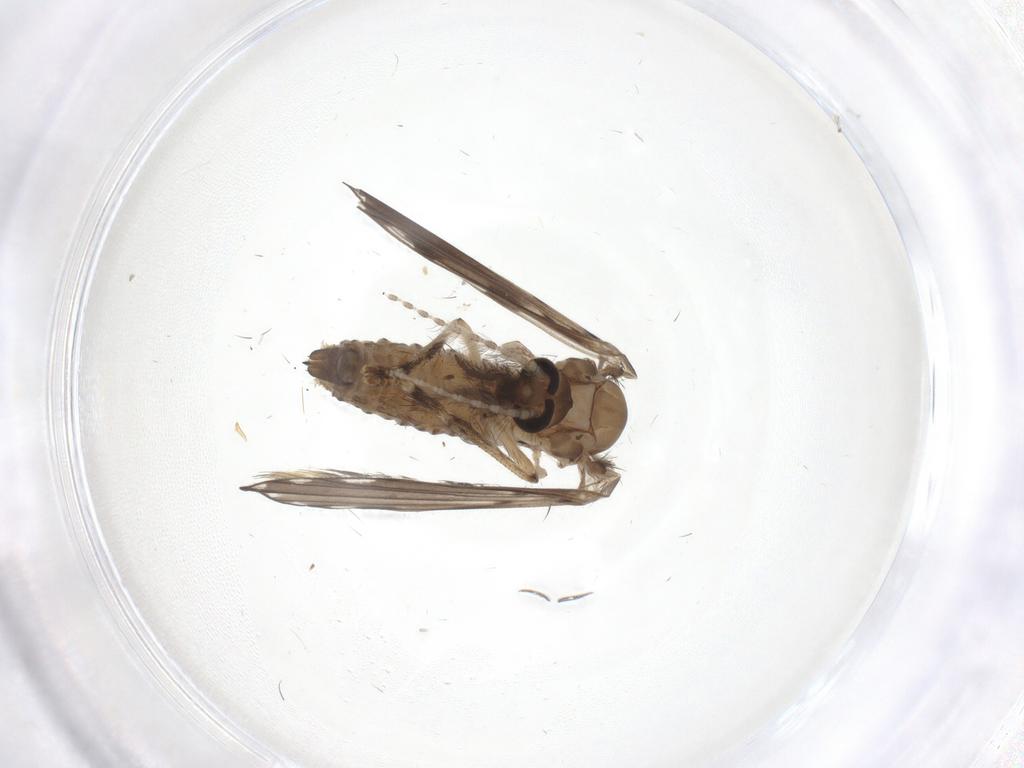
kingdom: Animalia
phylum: Arthropoda
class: Insecta
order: Diptera
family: Psychodidae
